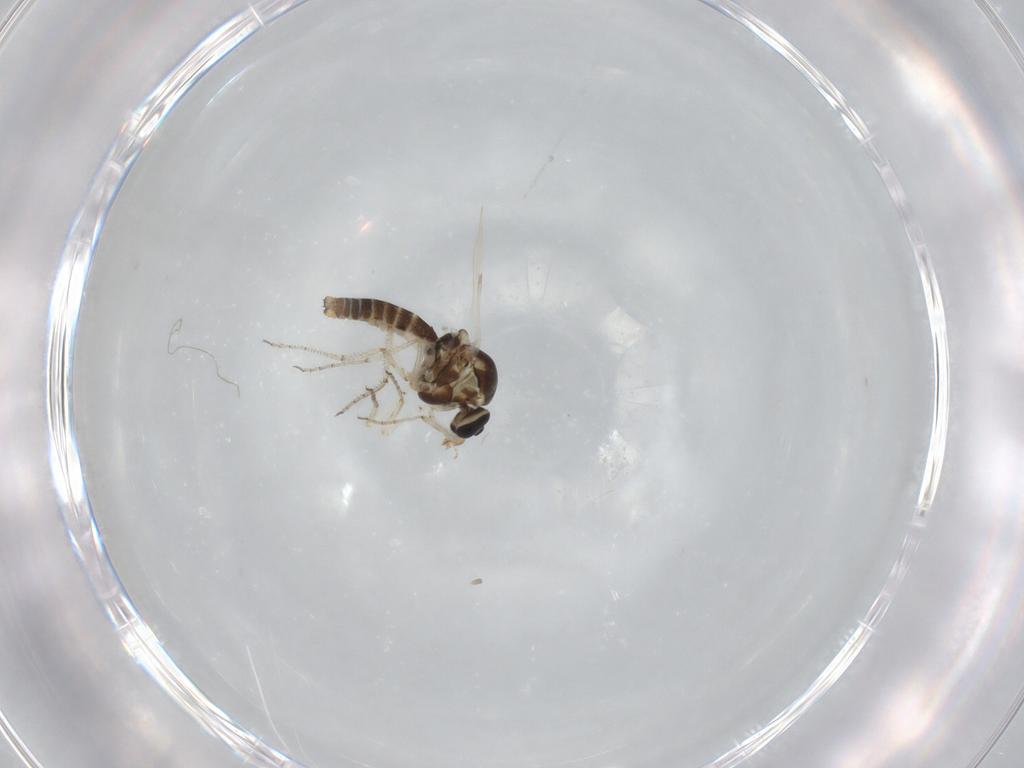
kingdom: Animalia
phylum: Arthropoda
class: Insecta
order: Diptera
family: Ceratopogonidae
